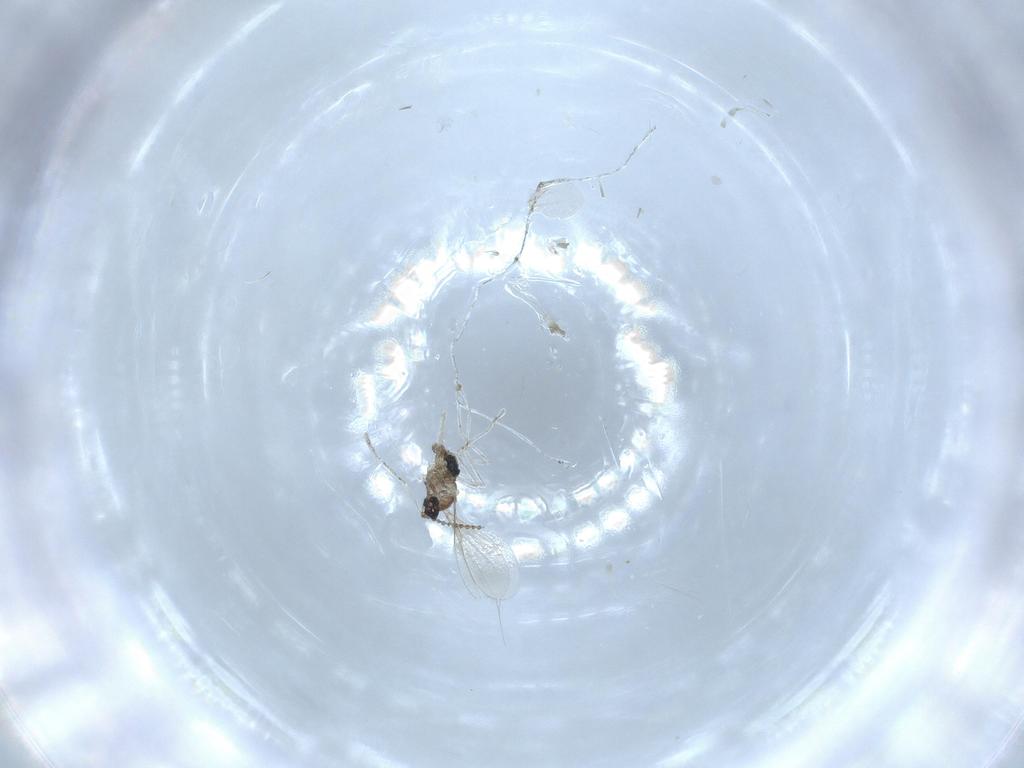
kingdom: Animalia
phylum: Arthropoda
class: Insecta
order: Diptera
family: Cecidomyiidae
